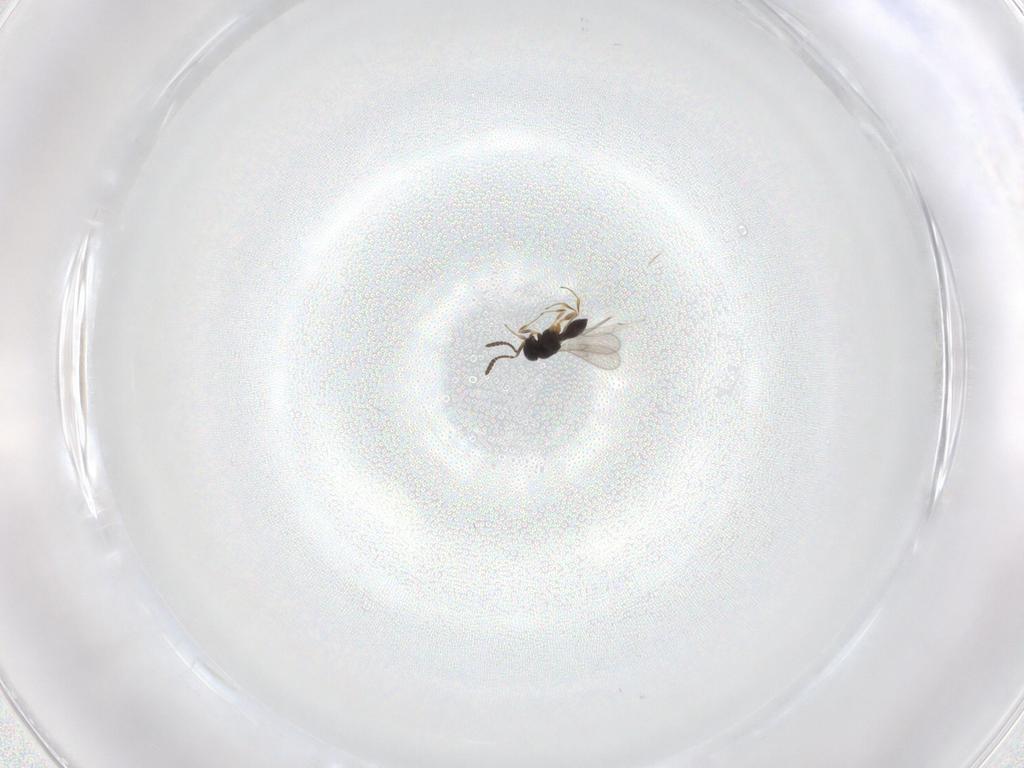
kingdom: Animalia
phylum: Arthropoda
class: Insecta
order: Hymenoptera
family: Scelionidae
